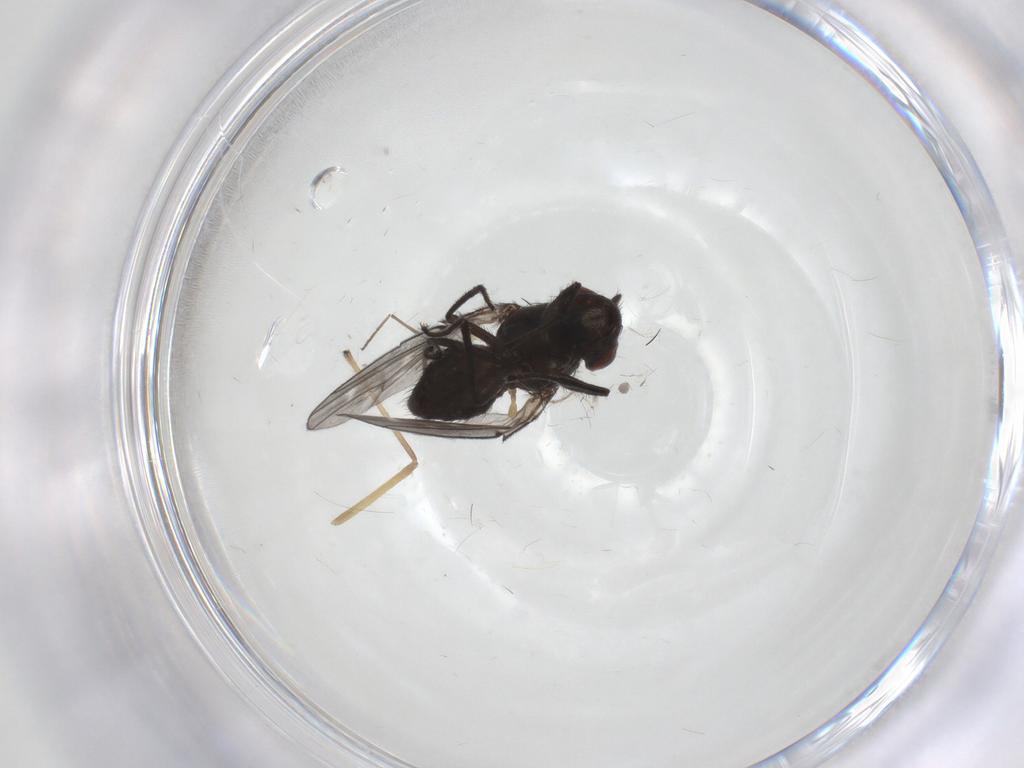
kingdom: Animalia
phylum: Arthropoda
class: Insecta
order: Diptera
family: Ephydridae
